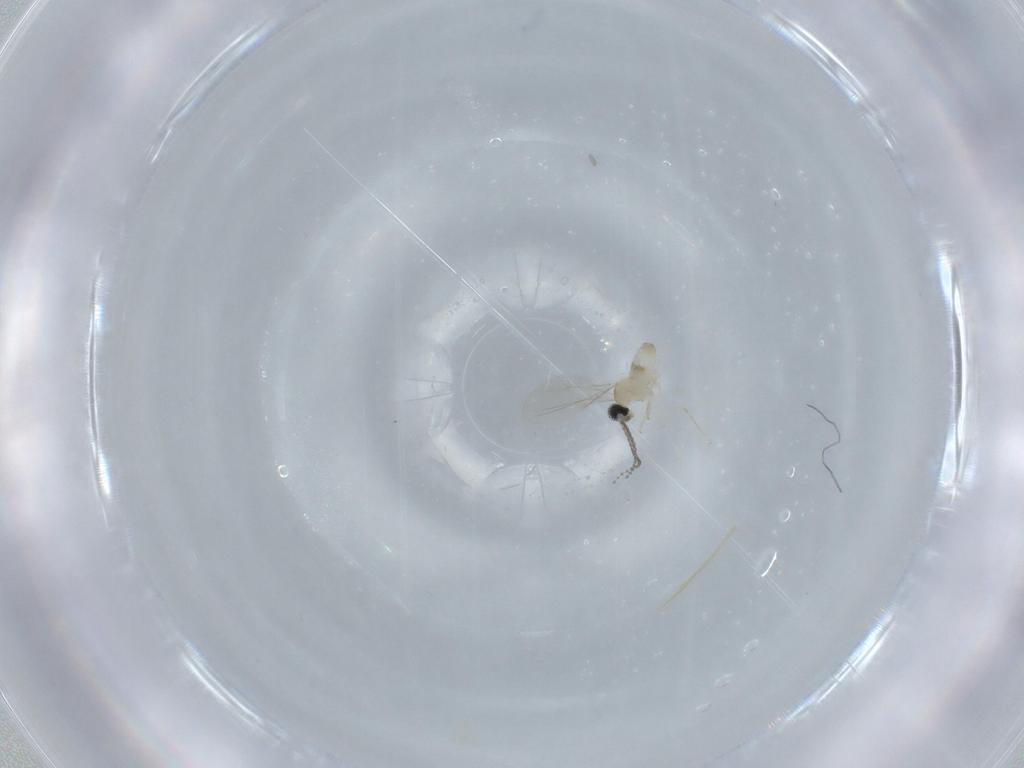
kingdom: Animalia
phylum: Arthropoda
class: Insecta
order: Diptera
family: Cecidomyiidae
